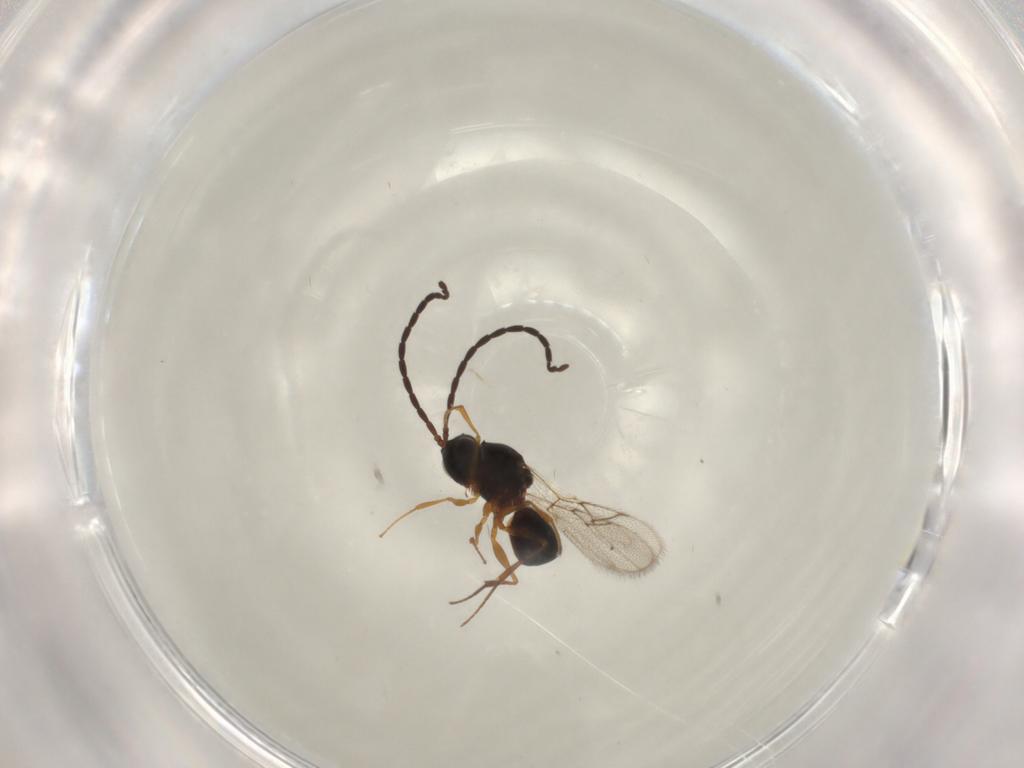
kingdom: Animalia
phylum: Arthropoda
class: Insecta
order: Hymenoptera
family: Figitidae
